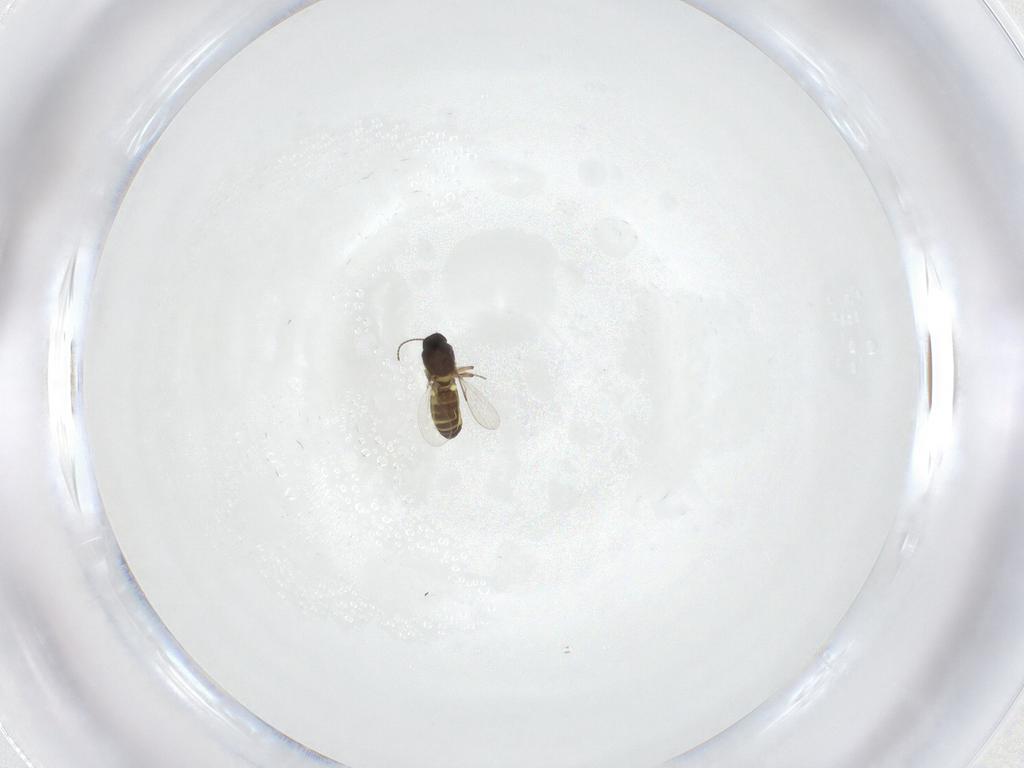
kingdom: Animalia
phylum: Arthropoda
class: Insecta
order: Diptera
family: Ceratopogonidae
